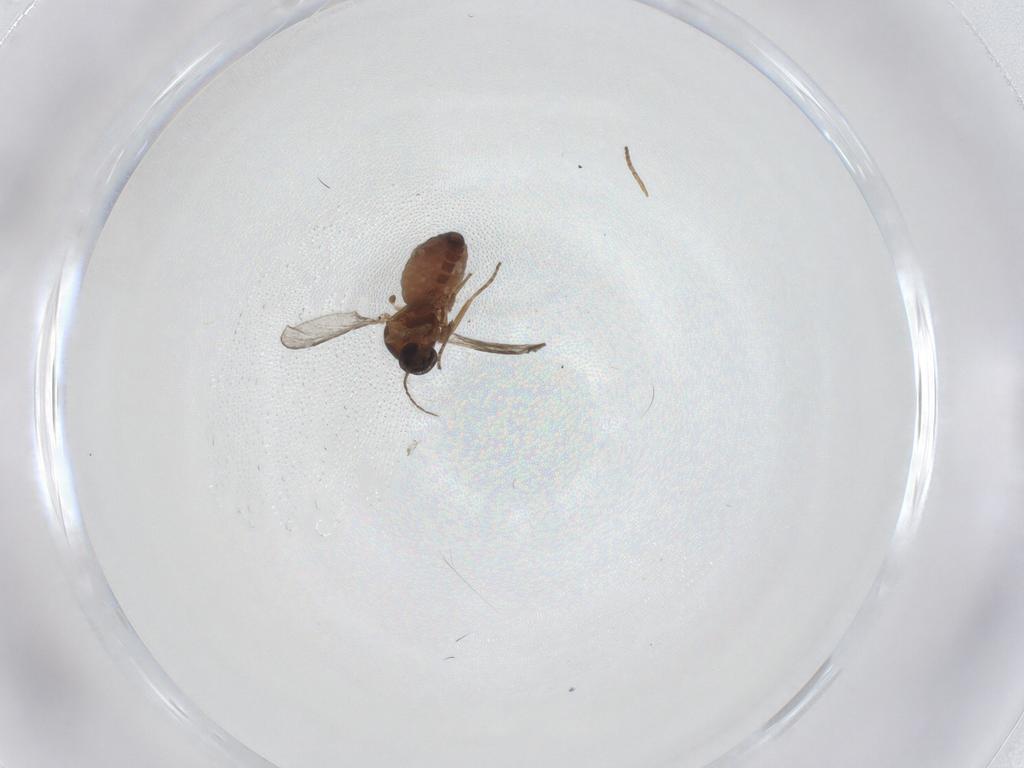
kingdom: Animalia
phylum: Arthropoda
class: Insecta
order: Diptera
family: Ceratopogonidae
